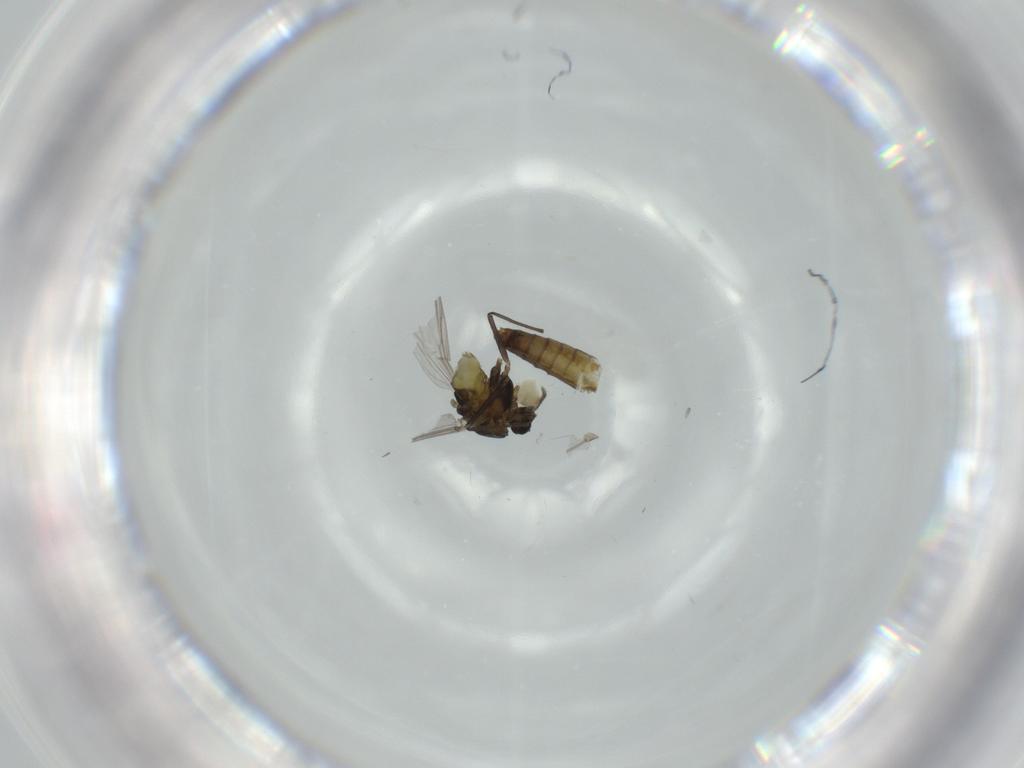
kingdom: Animalia
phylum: Arthropoda
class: Insecta
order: Diptera
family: Chironomidae
